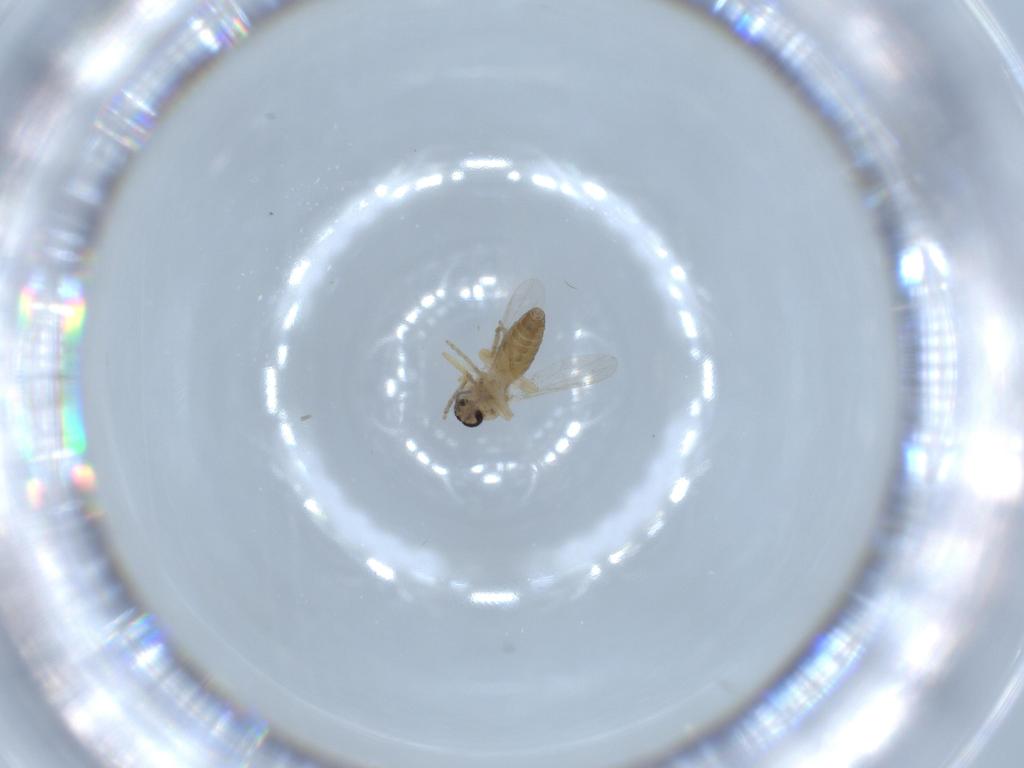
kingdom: Animalia
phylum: Arthropoda
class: Insecta
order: Diptera
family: Ceratopogonidae
